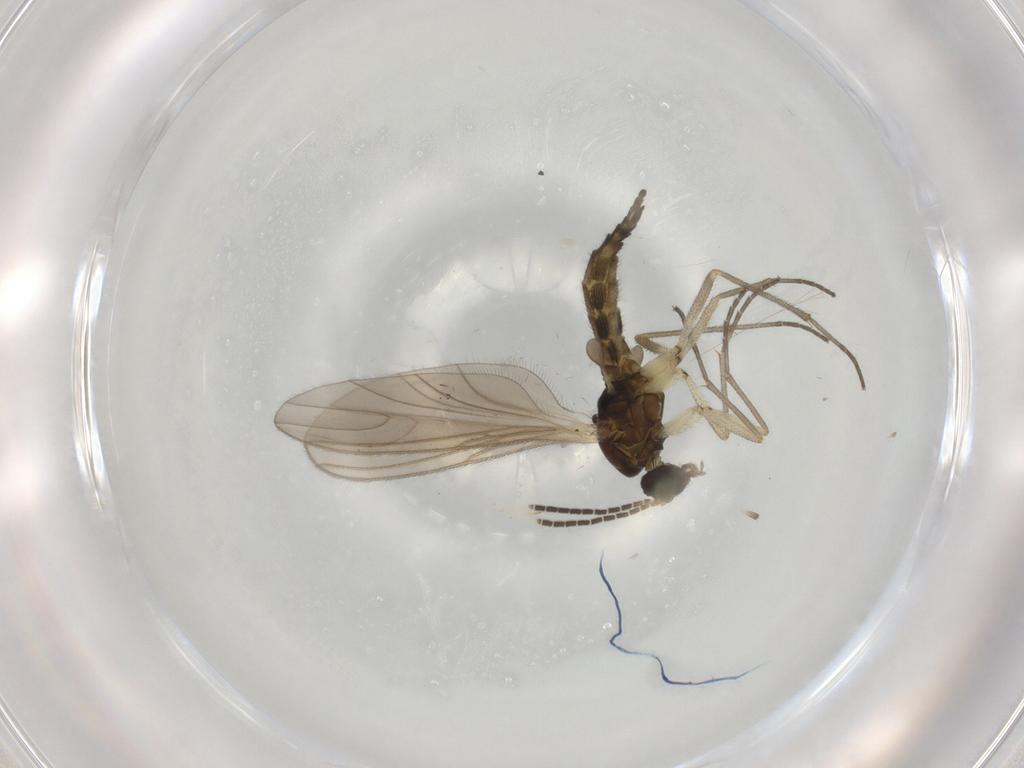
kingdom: Animalia
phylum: Arthropoda
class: Insecta
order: Diptera
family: Sciaridae
